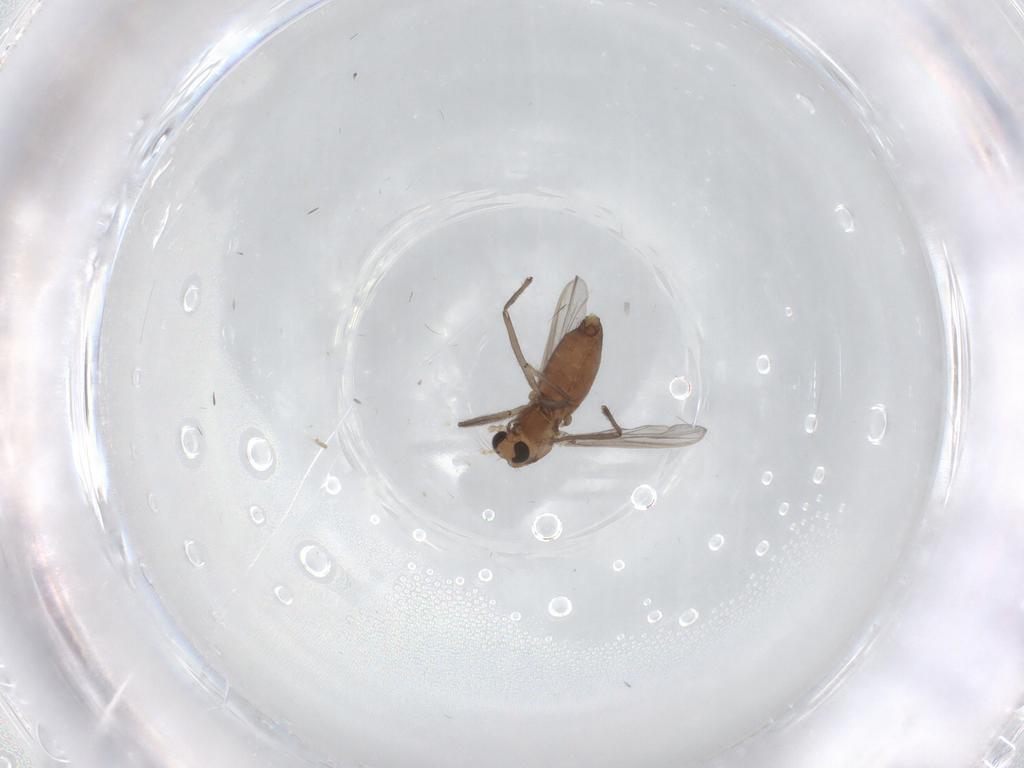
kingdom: Animalia
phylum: Arthropoda
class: Insecta
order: Diptera
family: Chironomidae
